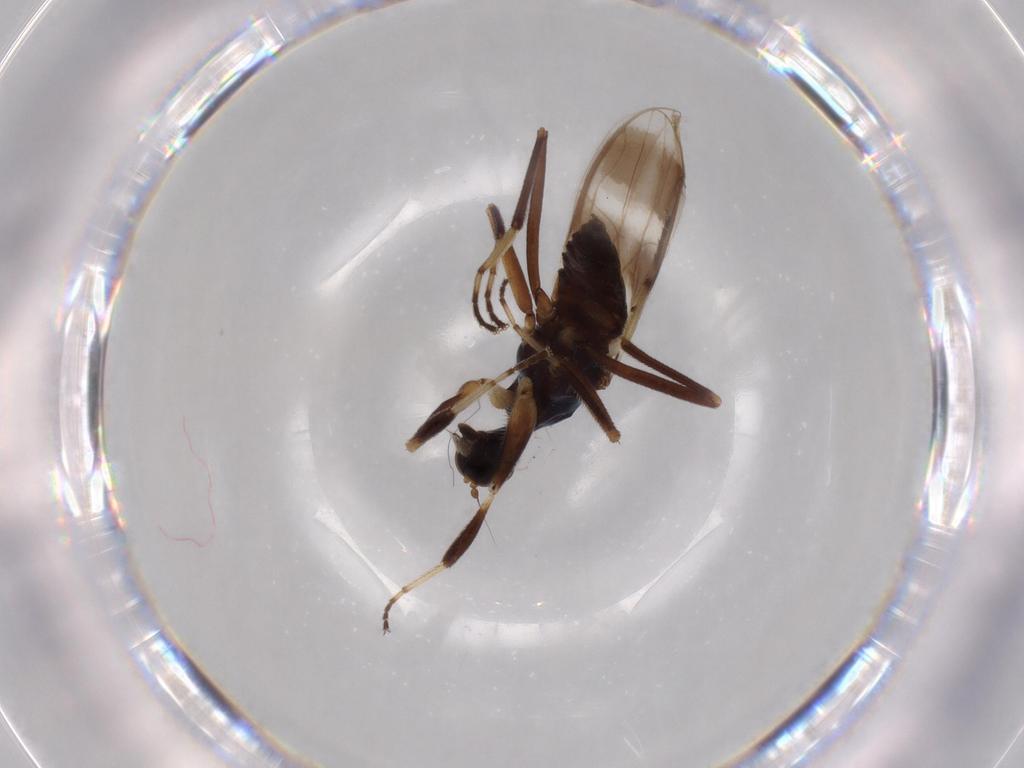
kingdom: Animalia
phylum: Arthropoda
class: Insecta
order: Diptera
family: Hybotidae
